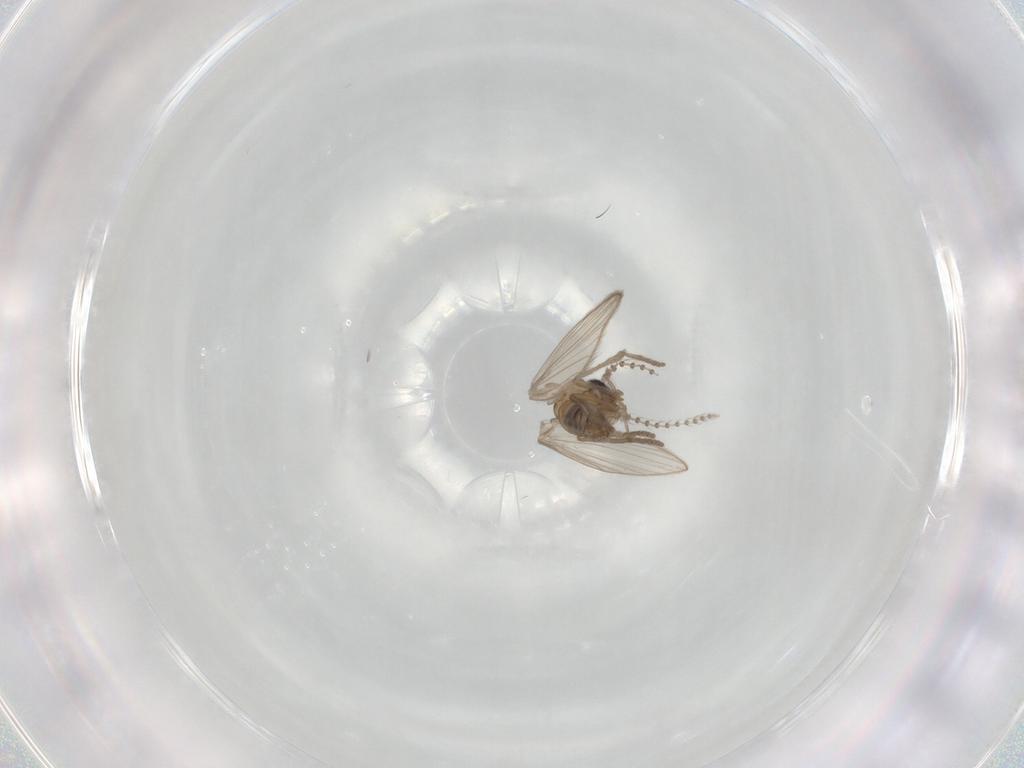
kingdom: Animalia
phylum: Arthropoda
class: Insecta
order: Diptera
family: Psychodidae
